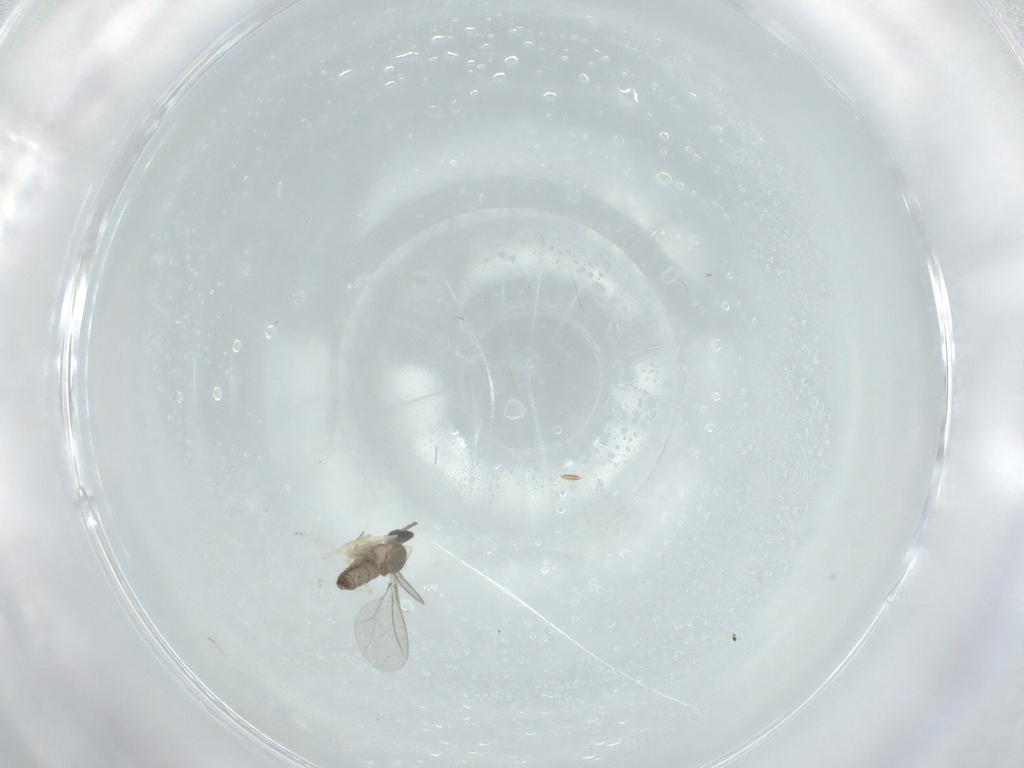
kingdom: Animalia
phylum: Arthropoda
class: Insecta
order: Diptera
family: Cecidomyiidae
